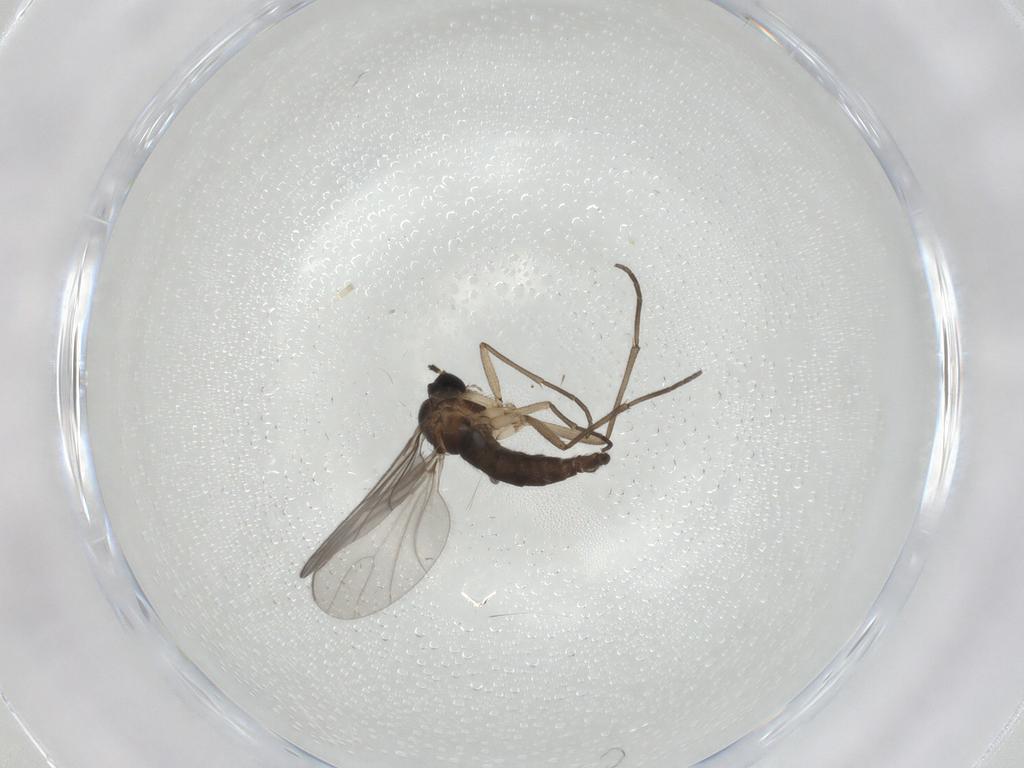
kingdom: Animalia
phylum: Arthropoda
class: Insecta
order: Diptera
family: Sciaridae
